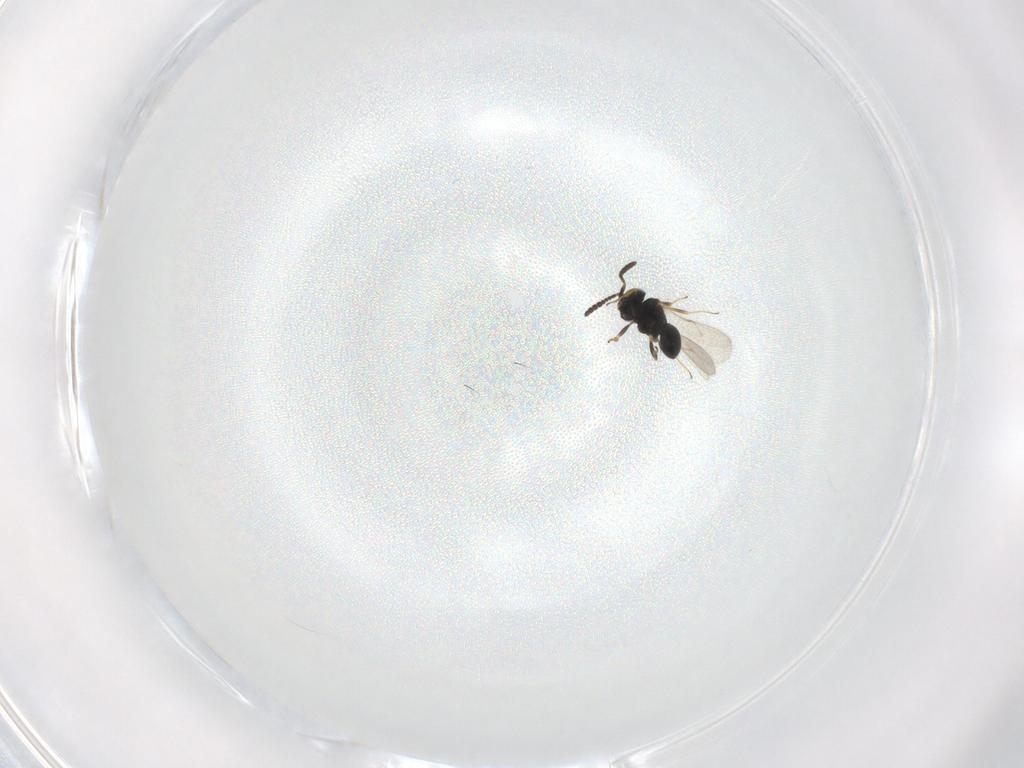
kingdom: Animalia
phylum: Arthropoda
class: Insecta
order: Hymenoptera
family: Scelionidae
